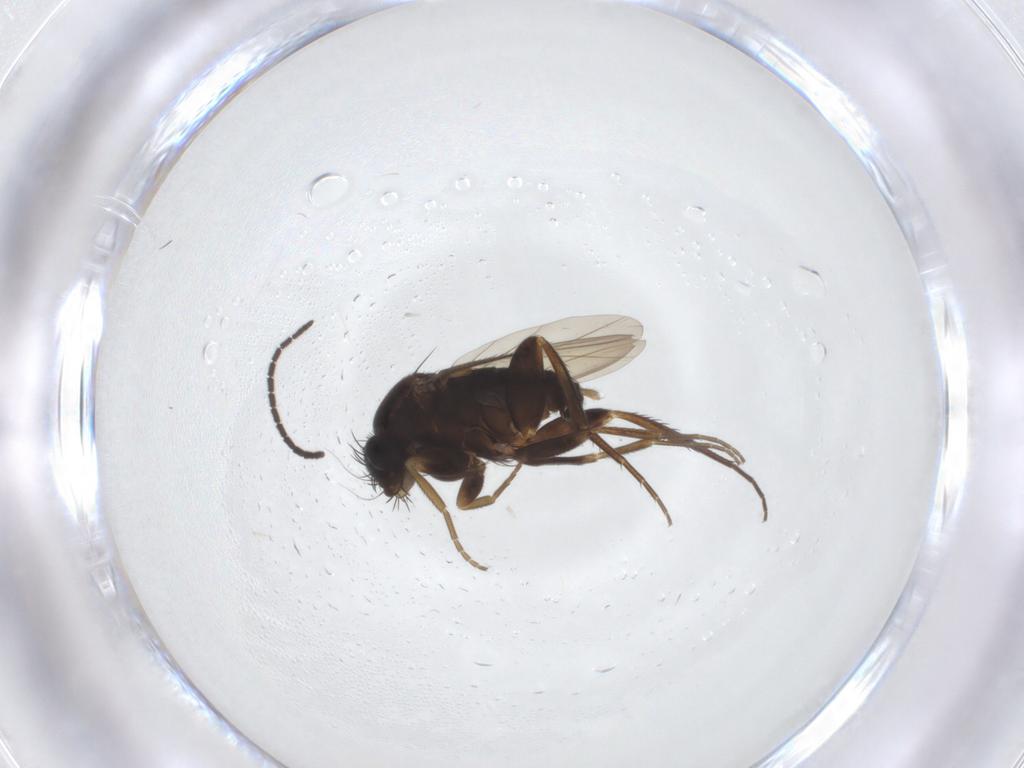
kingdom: Animalia
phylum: Arthropoda
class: Insecta
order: Diptera
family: Phoridae
